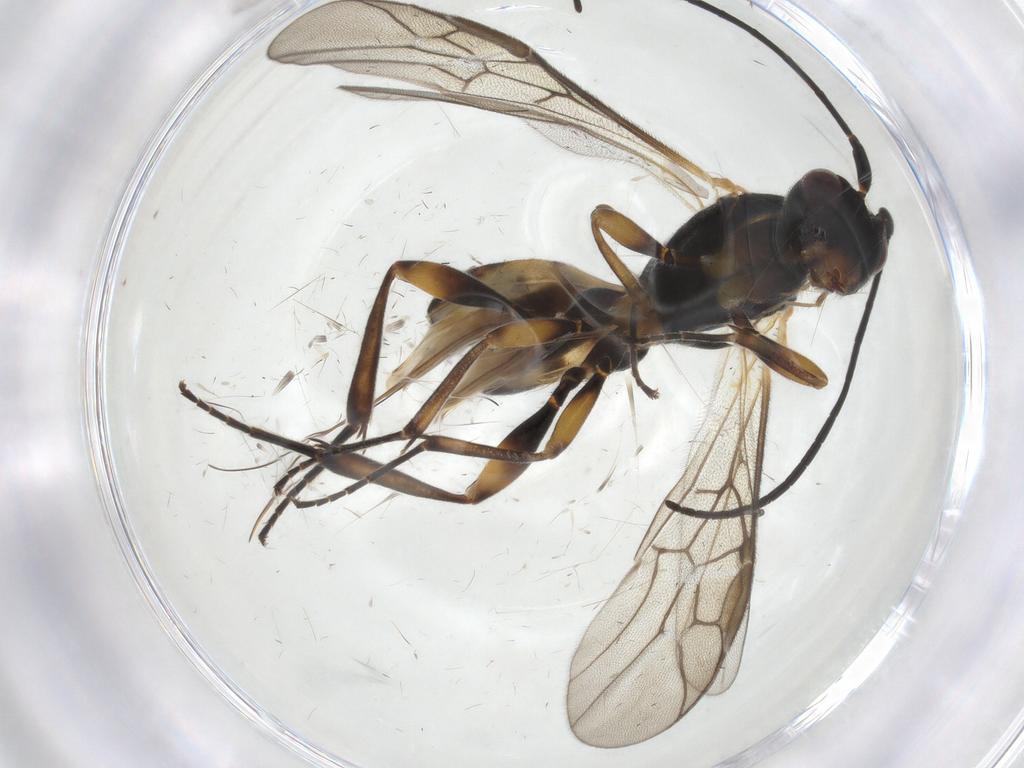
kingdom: Animalia
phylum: Arthropoda
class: Insecta
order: Hymenoptera
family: Braconidae
